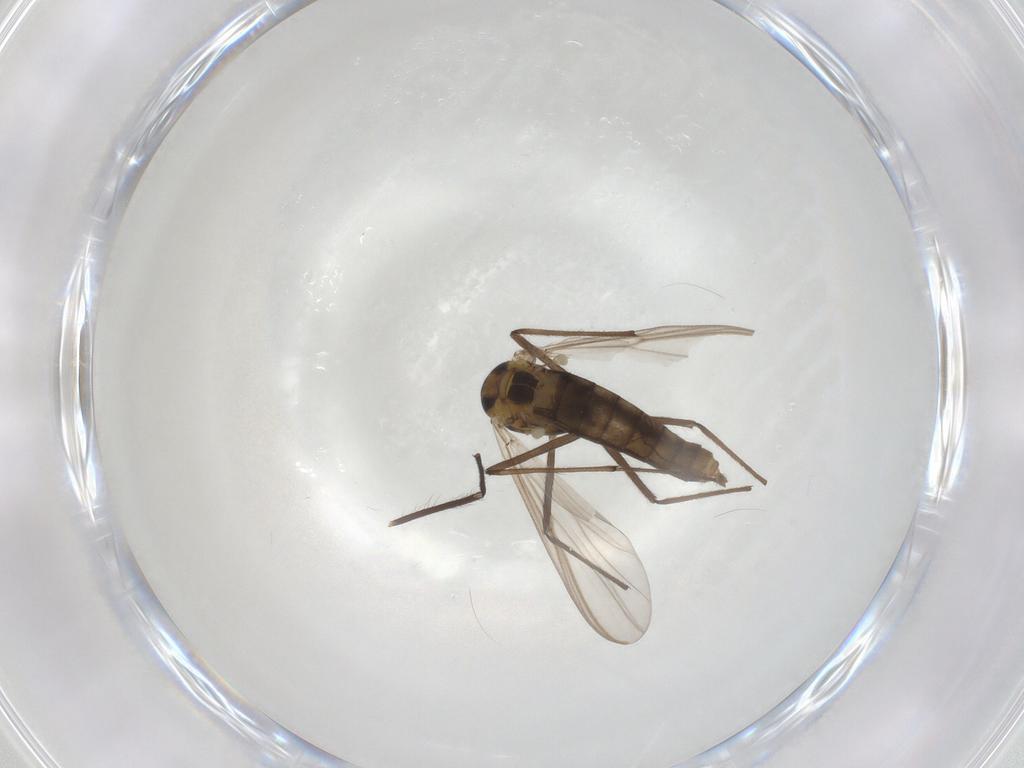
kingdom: Animalia
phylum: Arthropoda
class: Insecta
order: Diptera
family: Chironomidae
